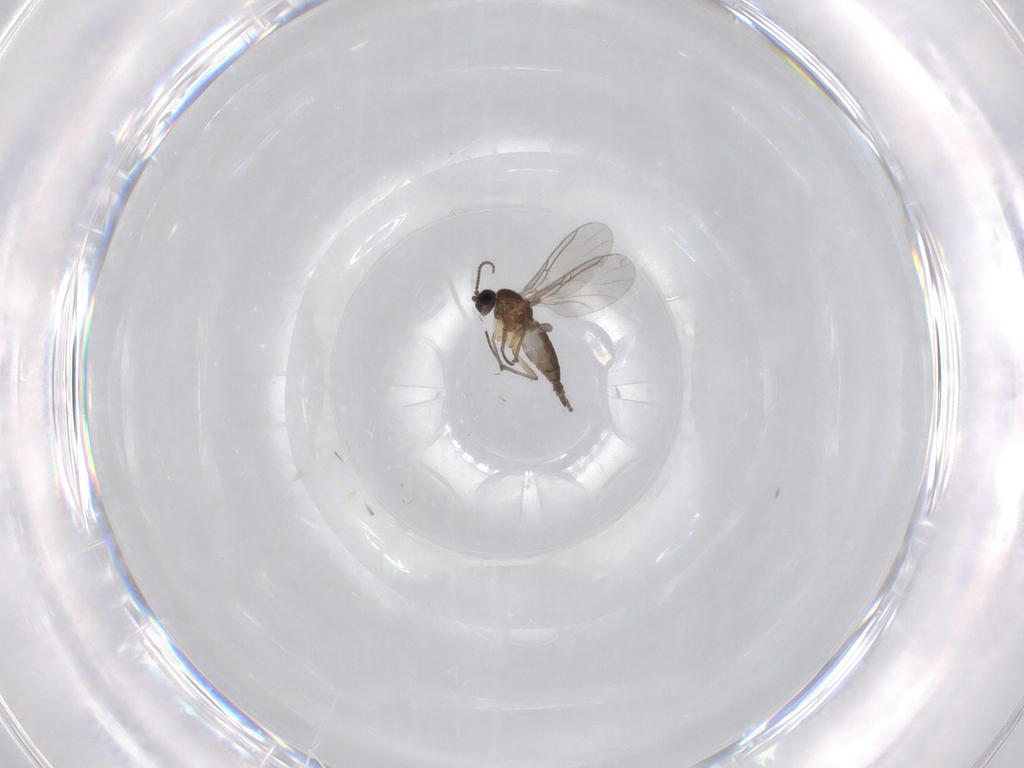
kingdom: Animalia
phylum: Arthropoda
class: Insecta
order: Diptera
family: Sciaridae
